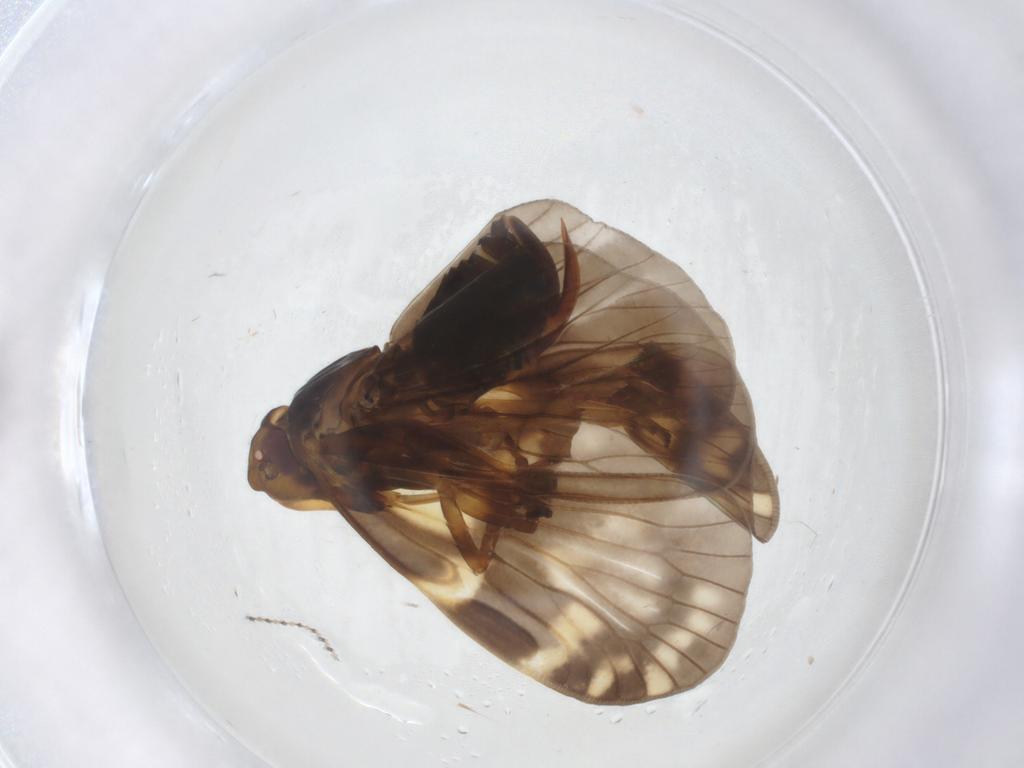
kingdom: Animalia
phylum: Arthropoda
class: Insecta
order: Hemiptera
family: Cixiidae
